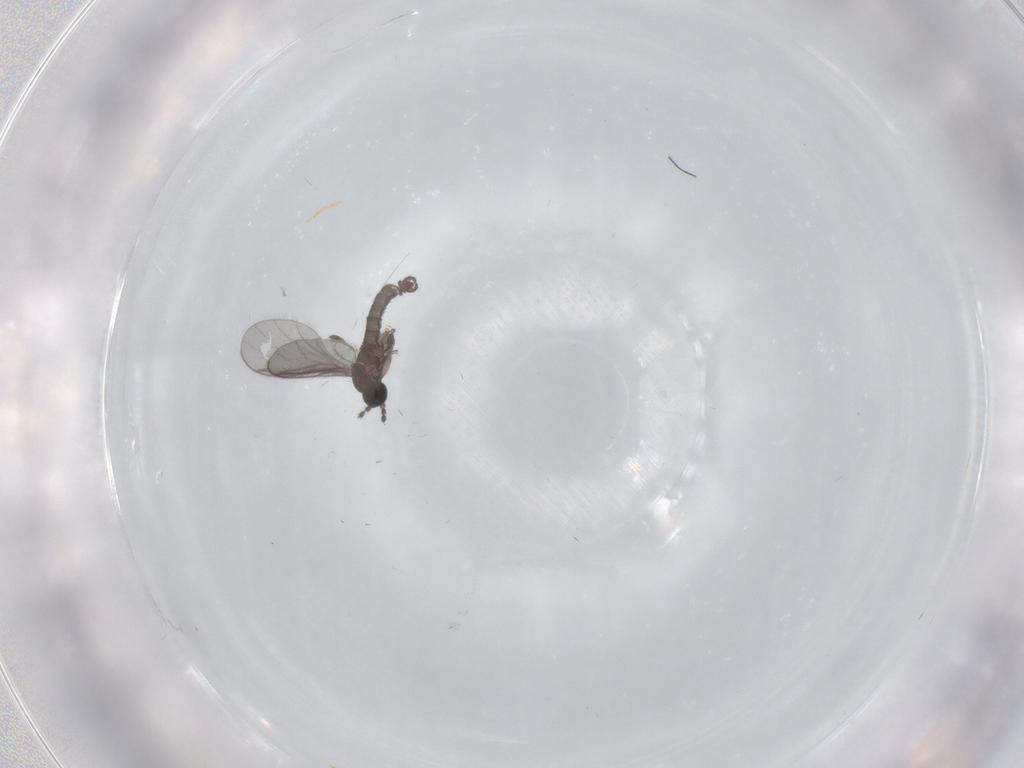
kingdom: Animalia
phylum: Arthropoda
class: Insecta
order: Diptera
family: Sciaridae
